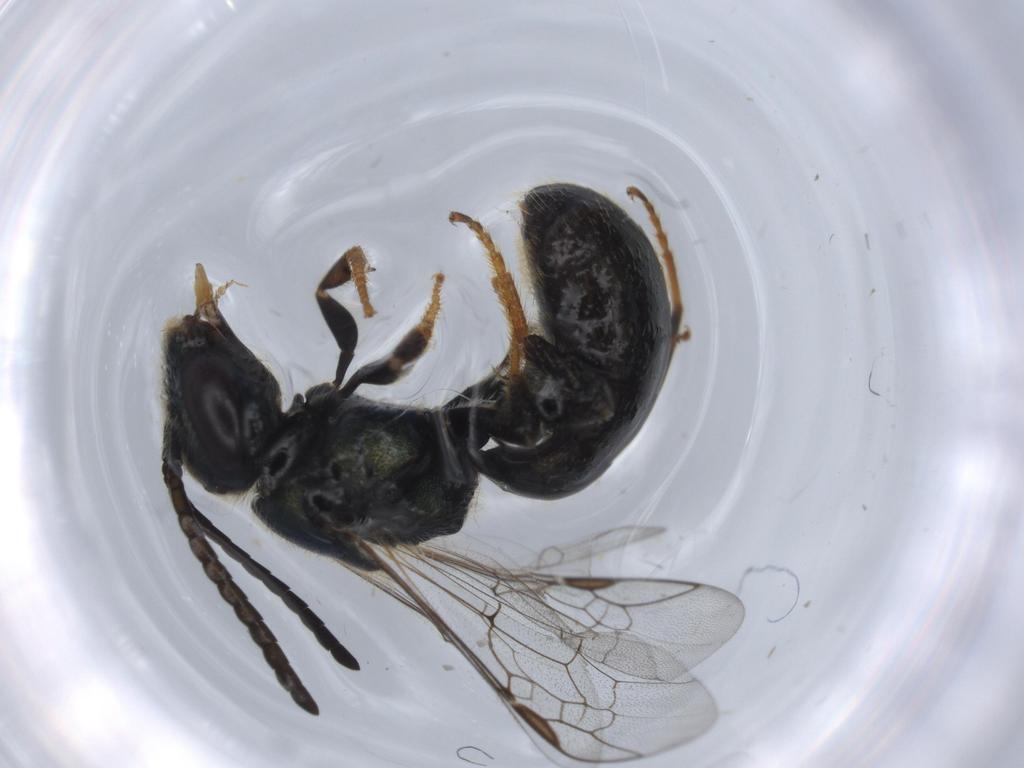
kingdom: Animalia
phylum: Arthropoda
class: Insecta
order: Hymenoptera
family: Halictidae
